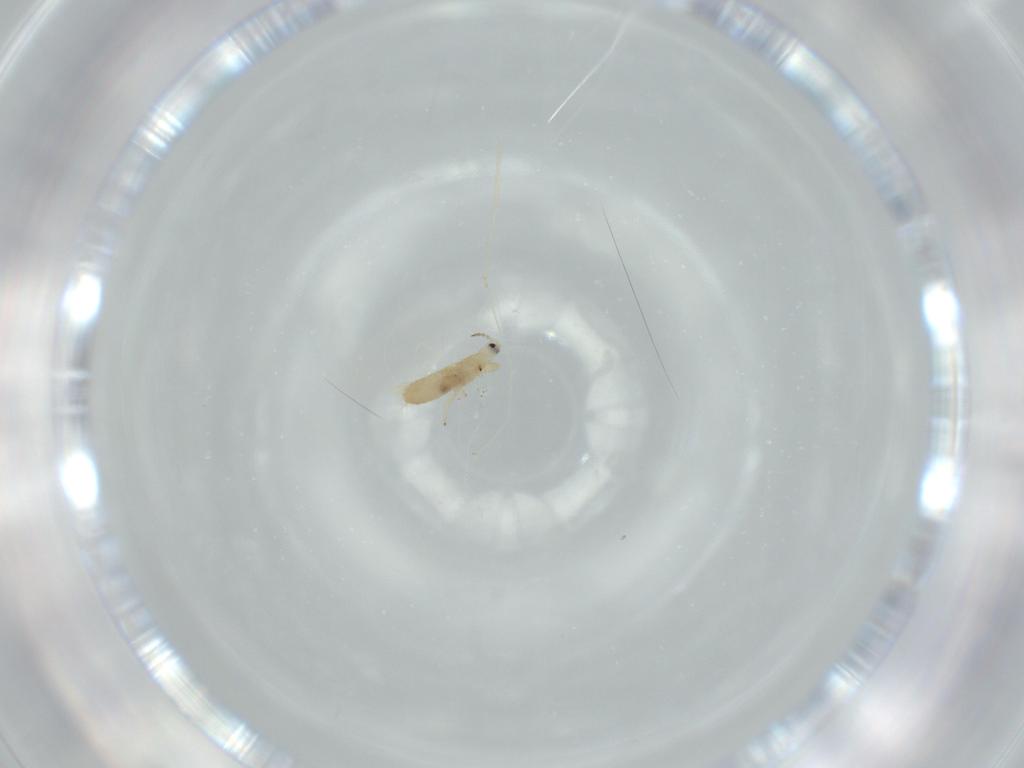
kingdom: Animalia
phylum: Arthropoda
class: Insecta
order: Thysanoptera
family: Phlaeothripidae
